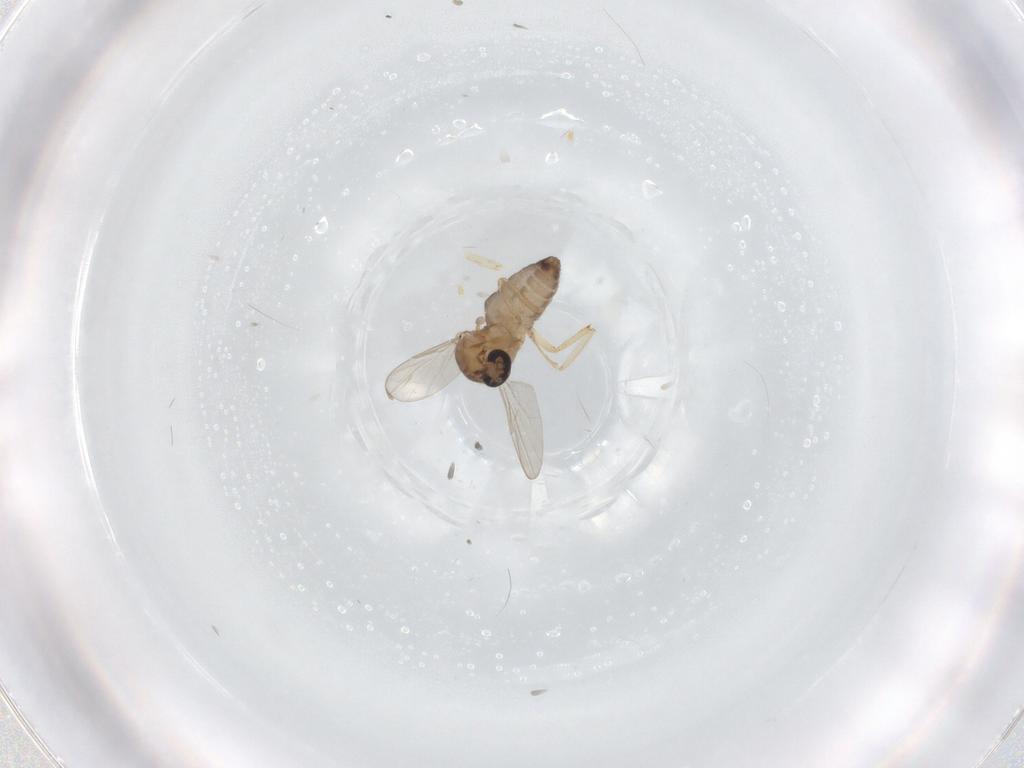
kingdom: Animalia
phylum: Arthropoda
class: Insecta
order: Diptera
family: Ceratopogonidae
